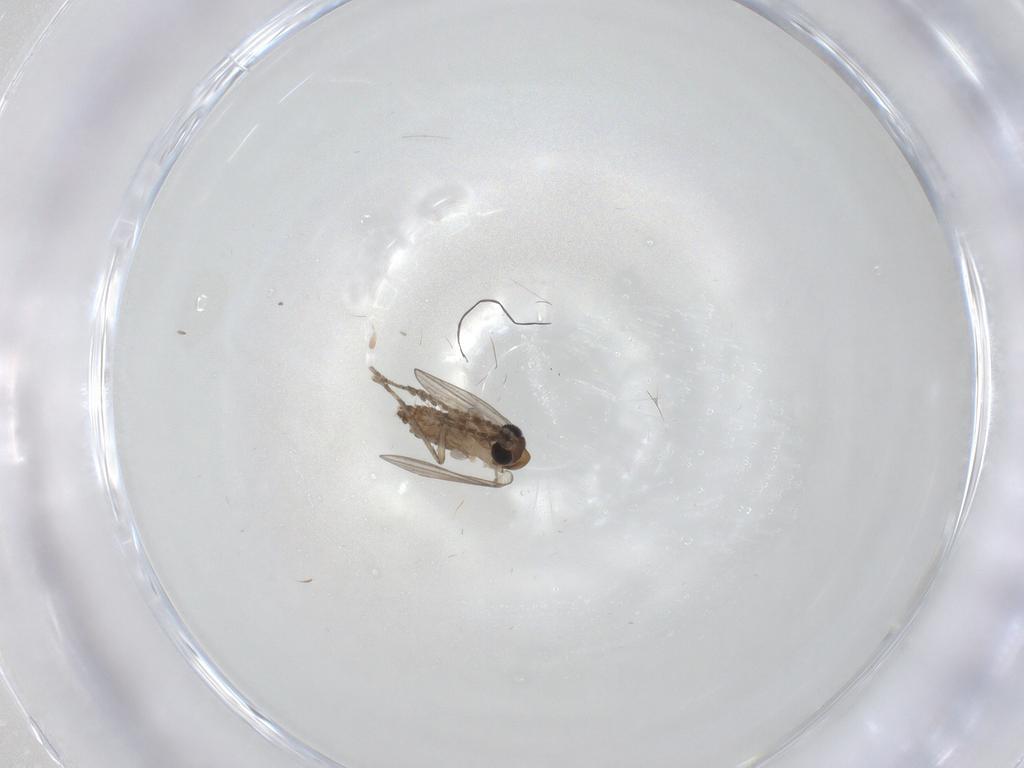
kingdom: Animalia
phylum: Arthropoda
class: Insecta
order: Diptera
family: Psychodidae
